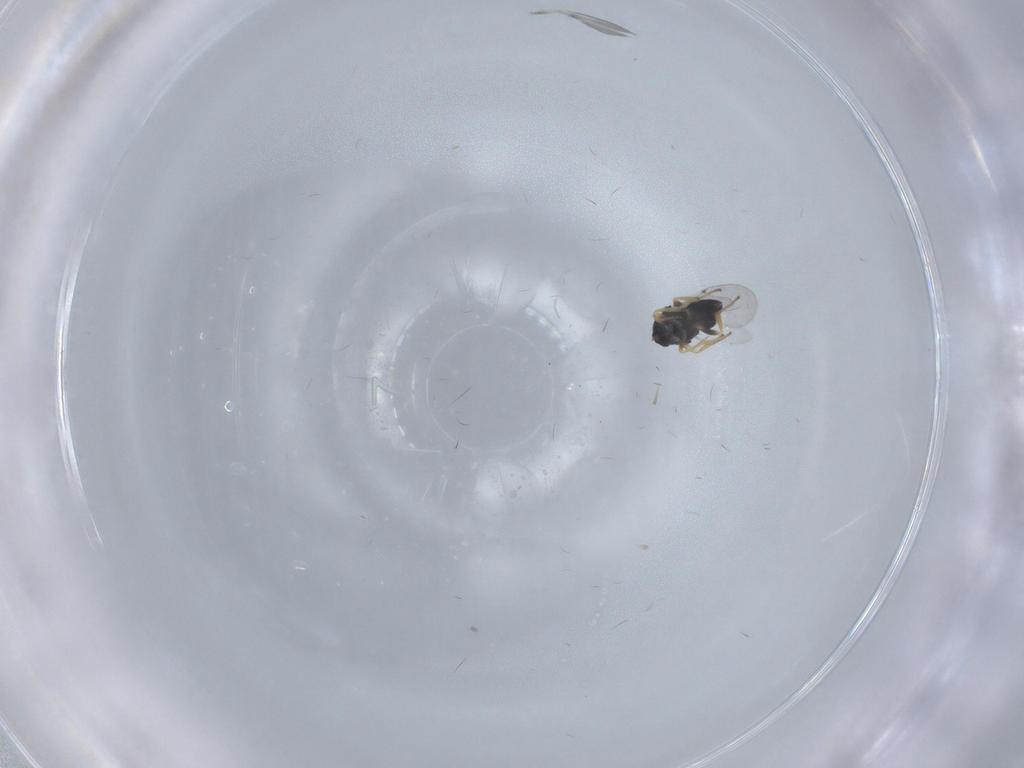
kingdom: Animalia
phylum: Arthropoda
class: Insecta
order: Hymenoptera
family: Encyrtidae
